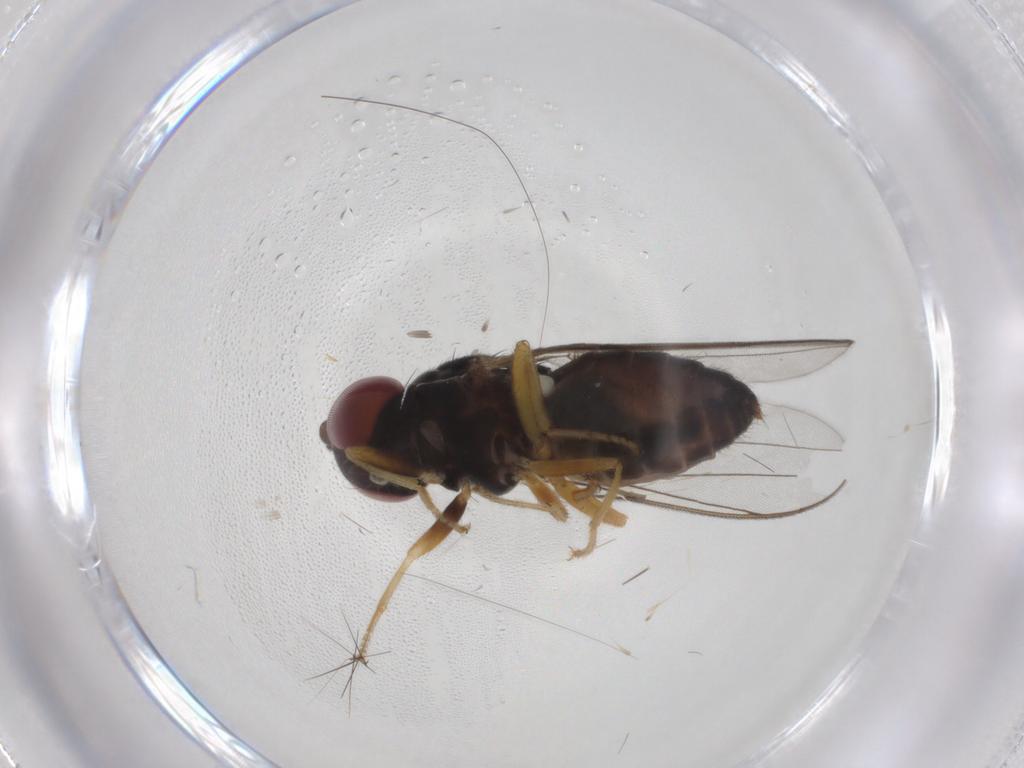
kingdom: Animalia
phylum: Arthropoda
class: Insecta
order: Diptera
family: Aulacigastridae
